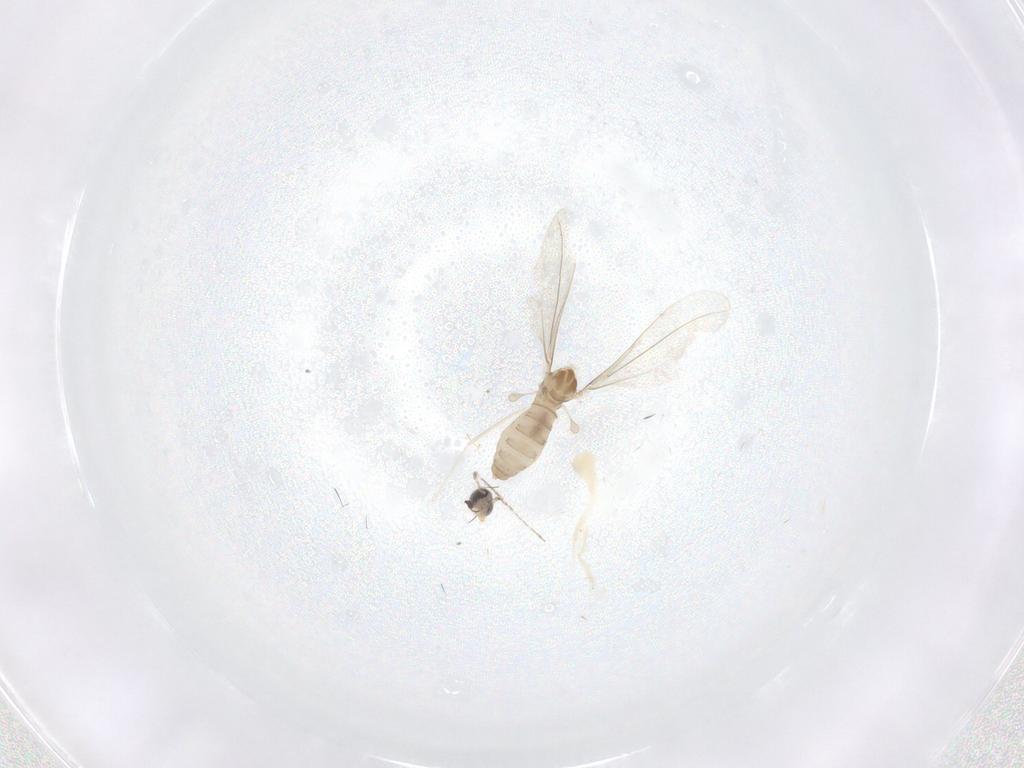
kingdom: Animalia
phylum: Arthropoda
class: Insecta
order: Diptera
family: Cecidomyiidae
